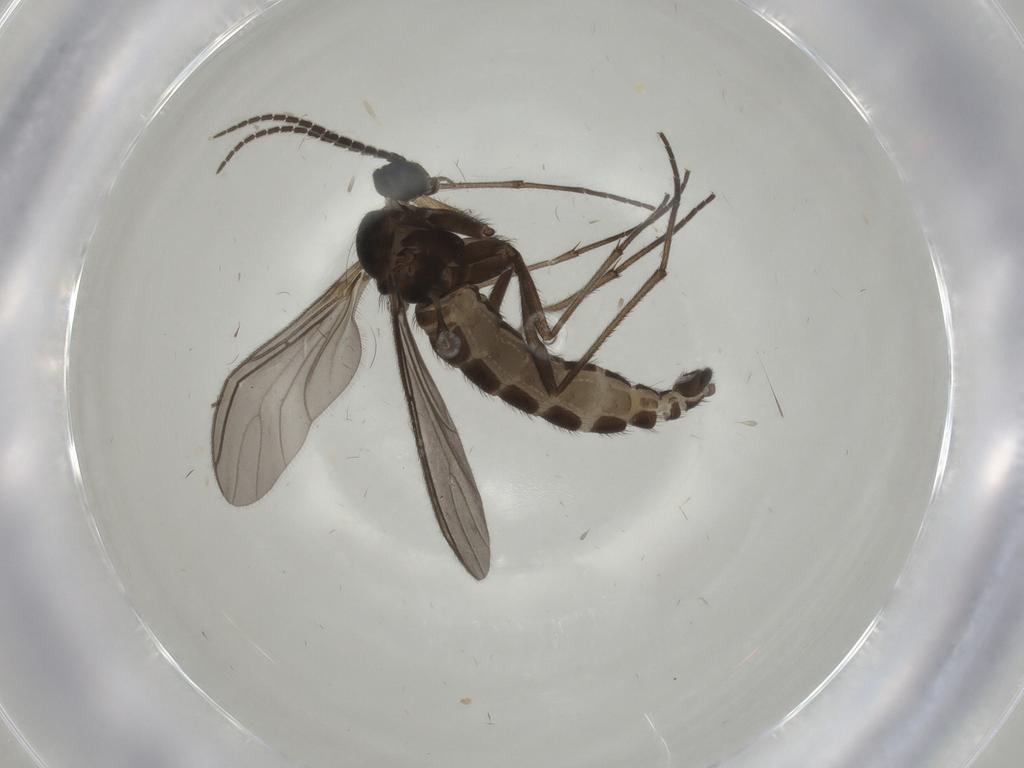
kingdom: Animalia
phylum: Arthropoda
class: Insecta
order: Diptera
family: Sciaridae
